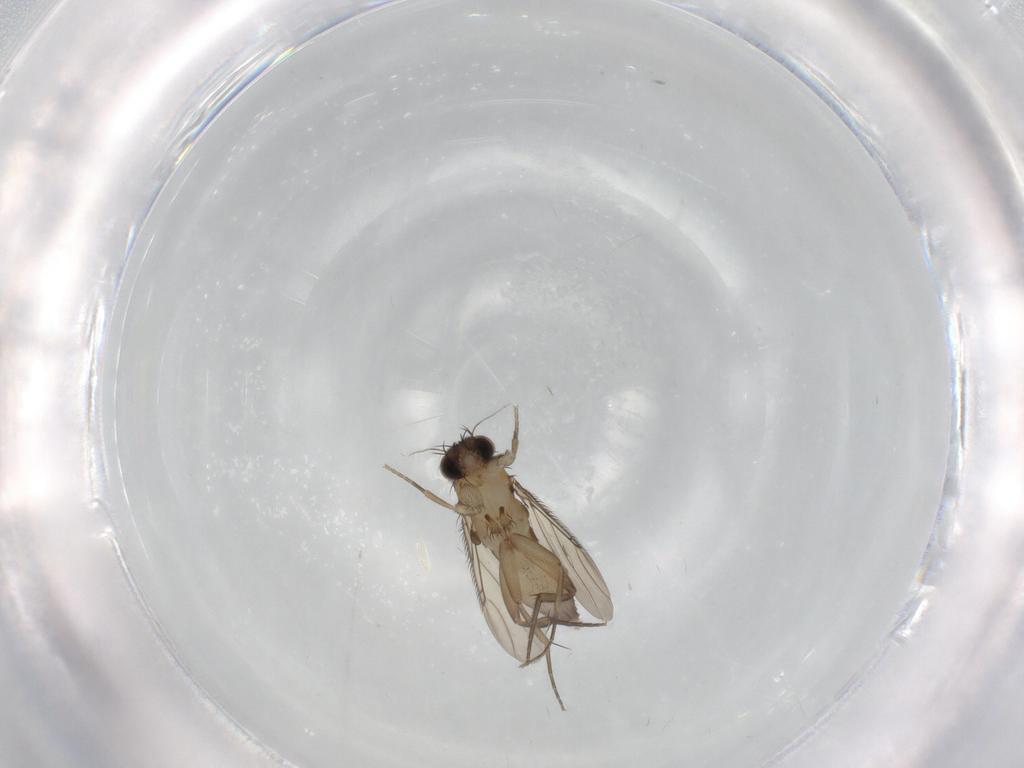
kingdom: Animalia
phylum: Arthropoda
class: Insecta
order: Diptera
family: Phoridae
